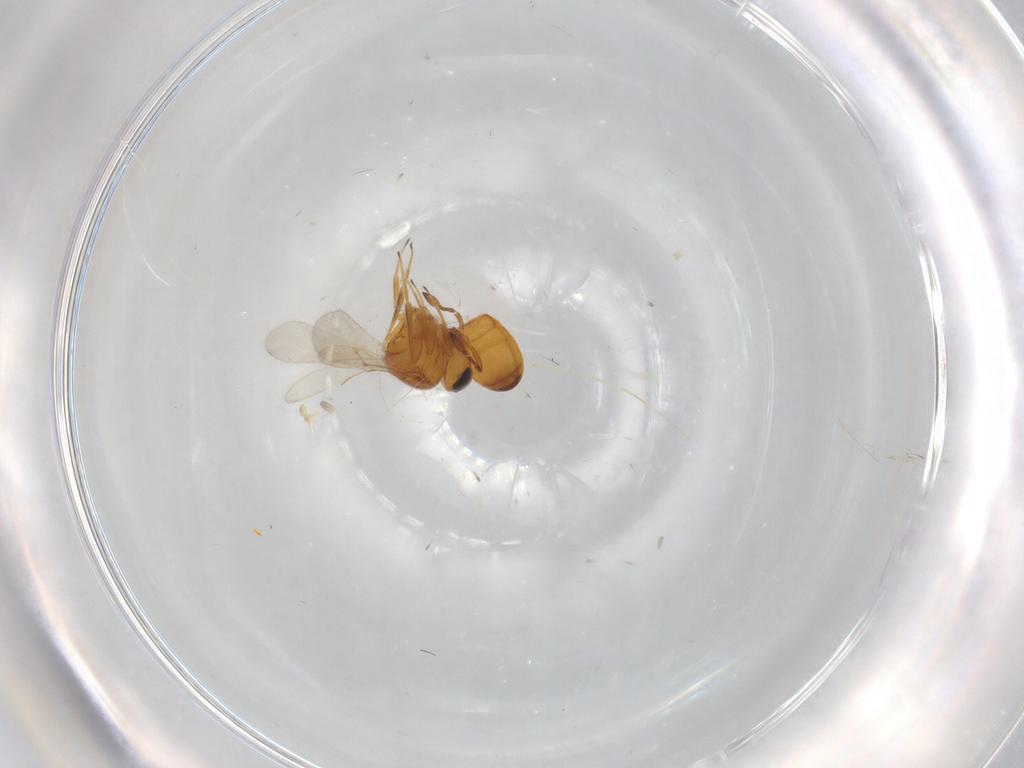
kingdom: Animalia
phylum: Arthropoda
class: Insecta
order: Hymenoptera
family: Scelionidae
